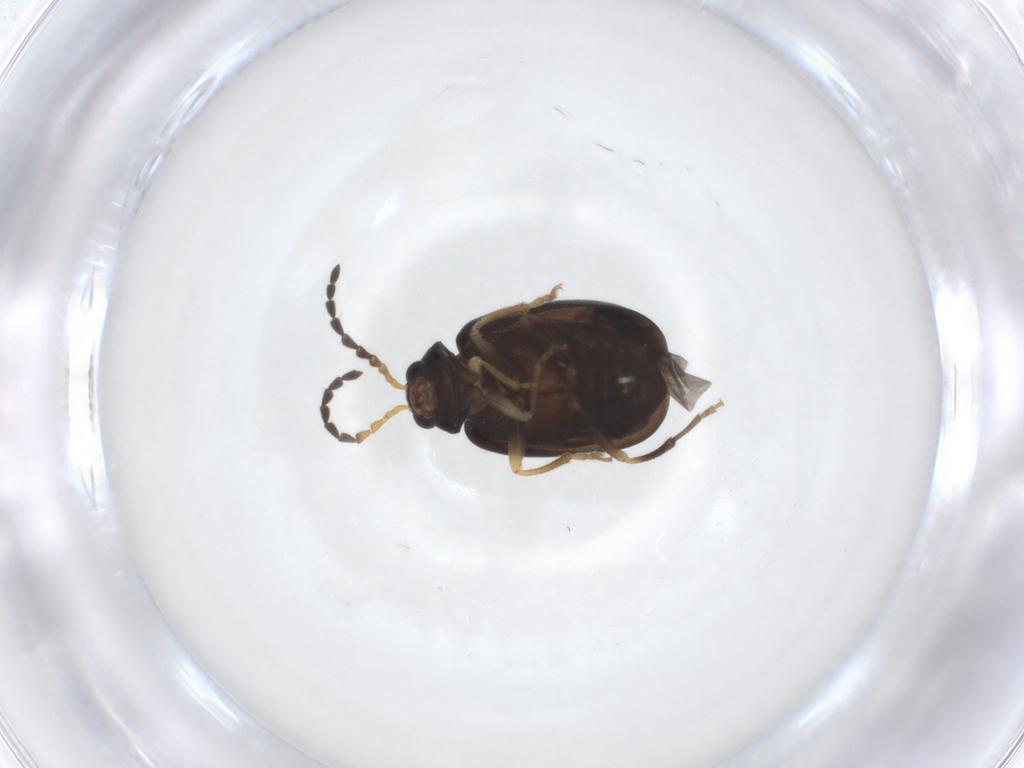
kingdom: Animalia
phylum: Arthropoda
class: Insecta
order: Coleoptera
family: Chrysomelidae
